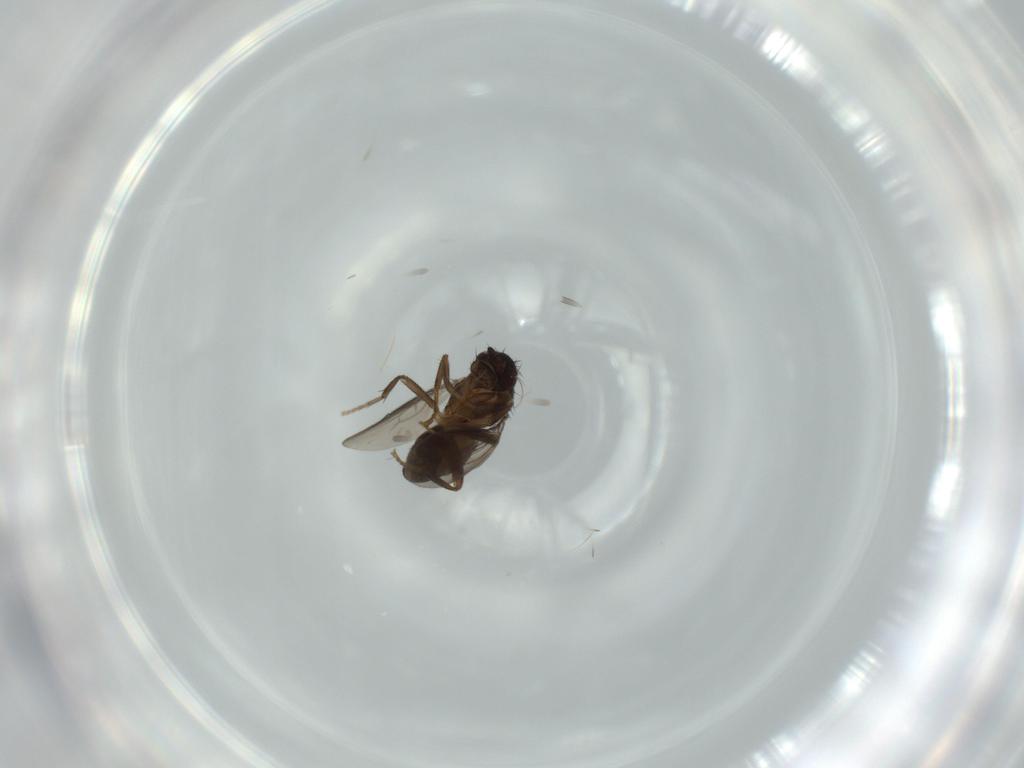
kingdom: Animalia
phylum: Arthropoda
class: Insecta
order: Diptera
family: Sphaeroceridae
